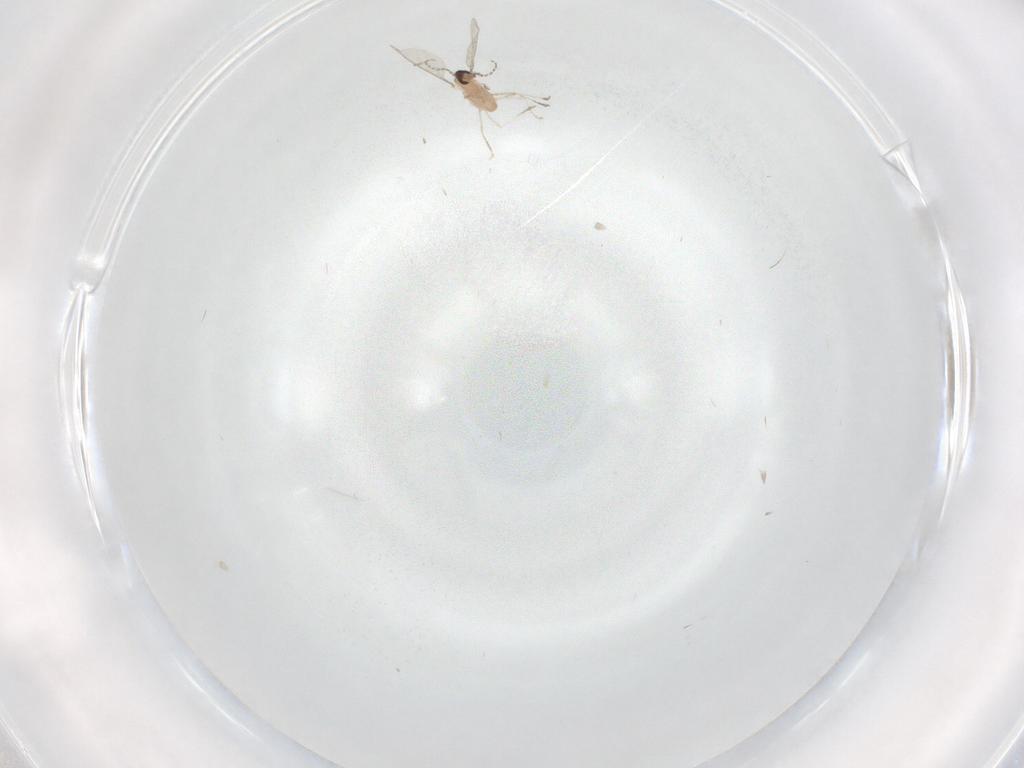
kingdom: Animalia
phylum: Arthropoda
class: Insecta
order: Diptera
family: Cecidomyiidae
